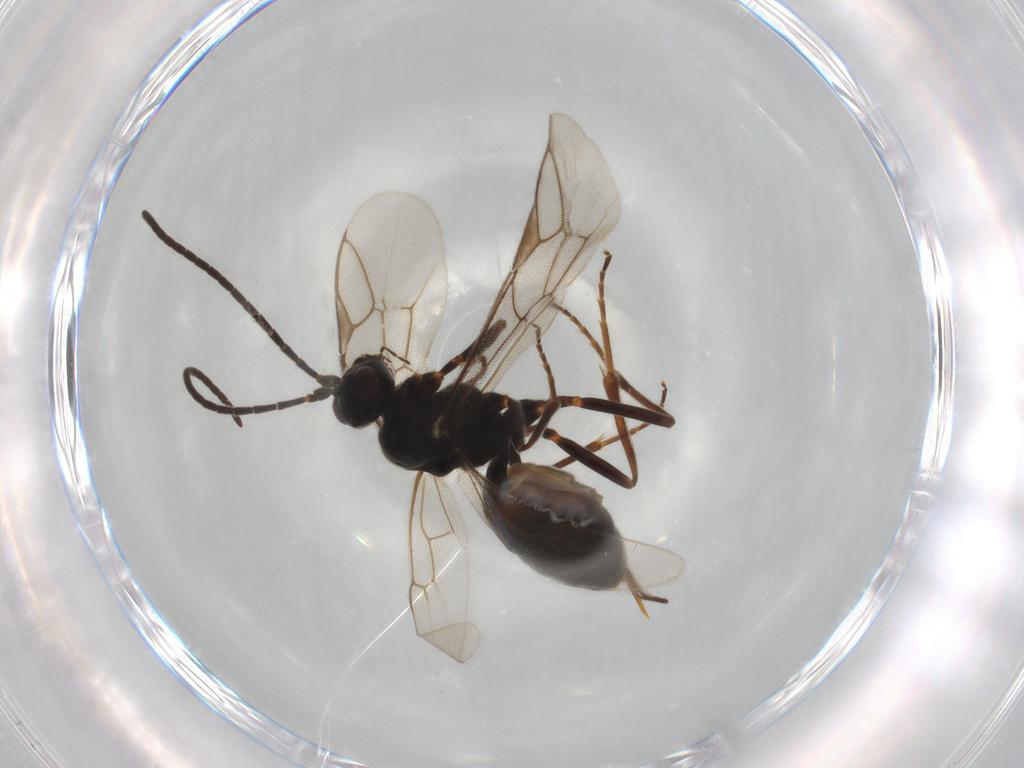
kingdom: Animalia
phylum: Arthropoda
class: Insecta
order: Hymenoptera
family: Ichneumonidae
